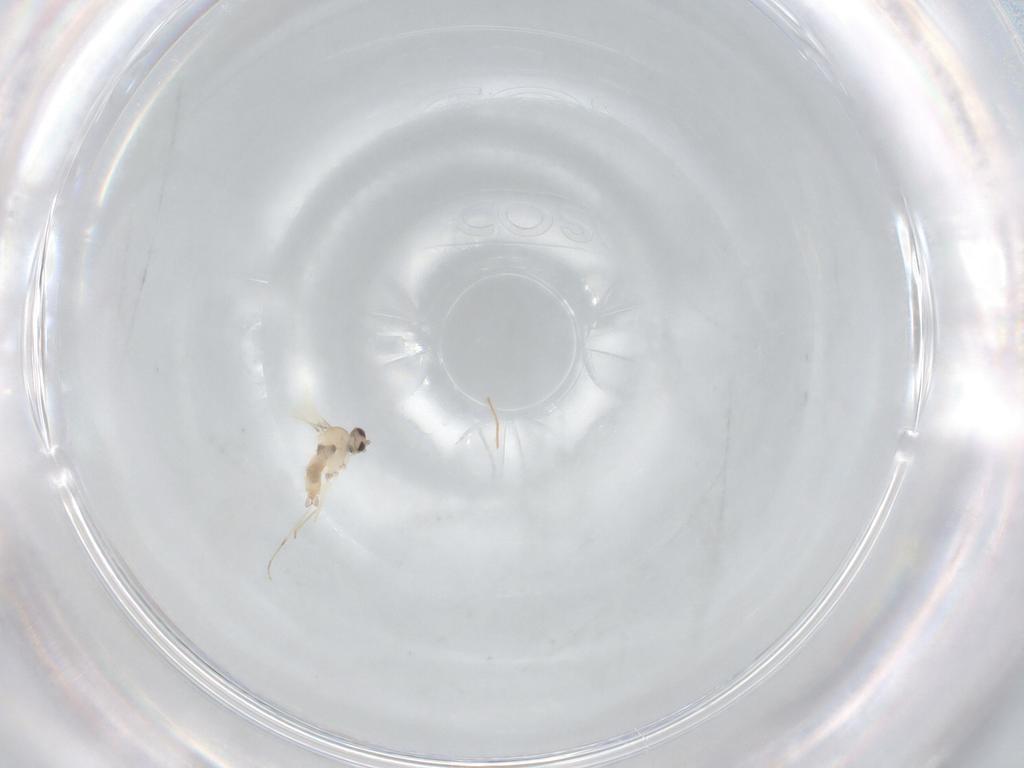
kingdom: Animalia
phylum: Arthropoda
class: Insecta
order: Diptera
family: Cecidomyiidae
